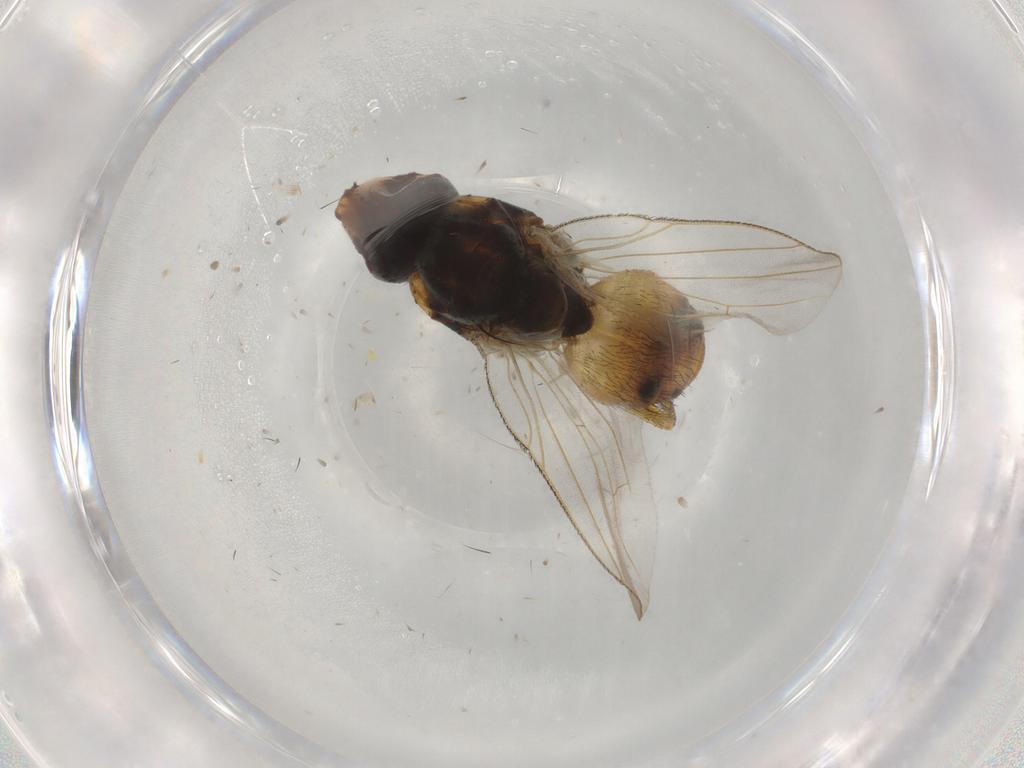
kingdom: Animalia
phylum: Arthropoda
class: Insecta
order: Diptera
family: Muscidae
